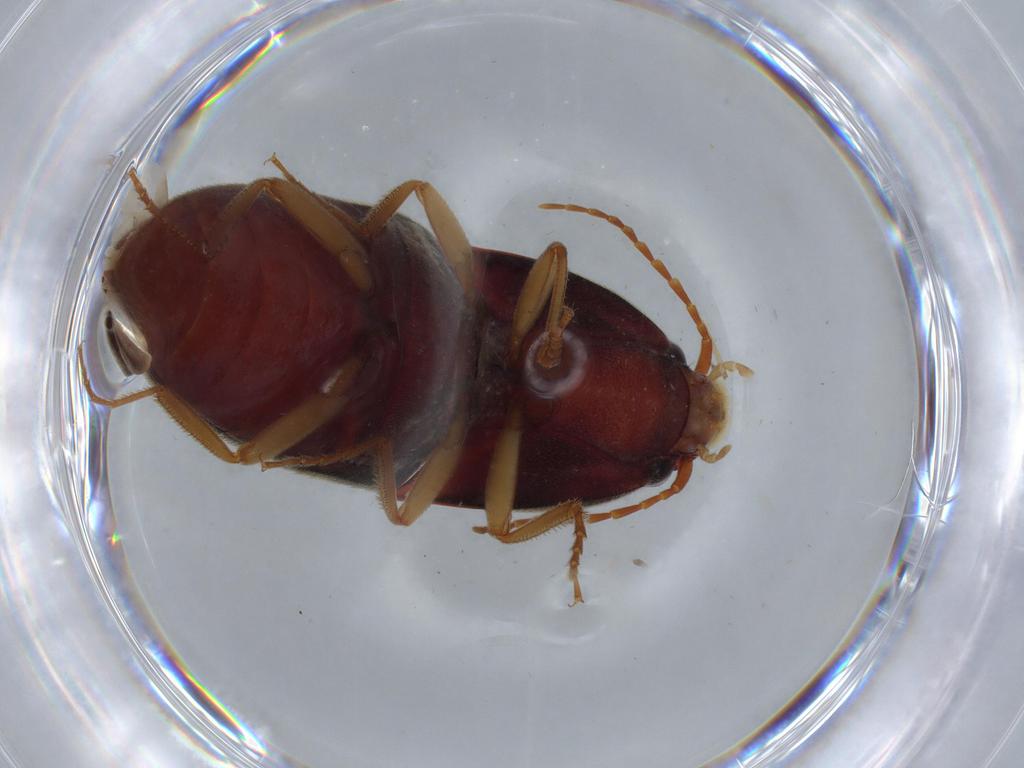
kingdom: Animalia
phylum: Arthropoda
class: Insecta
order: Coleoptera
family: Elateridae
